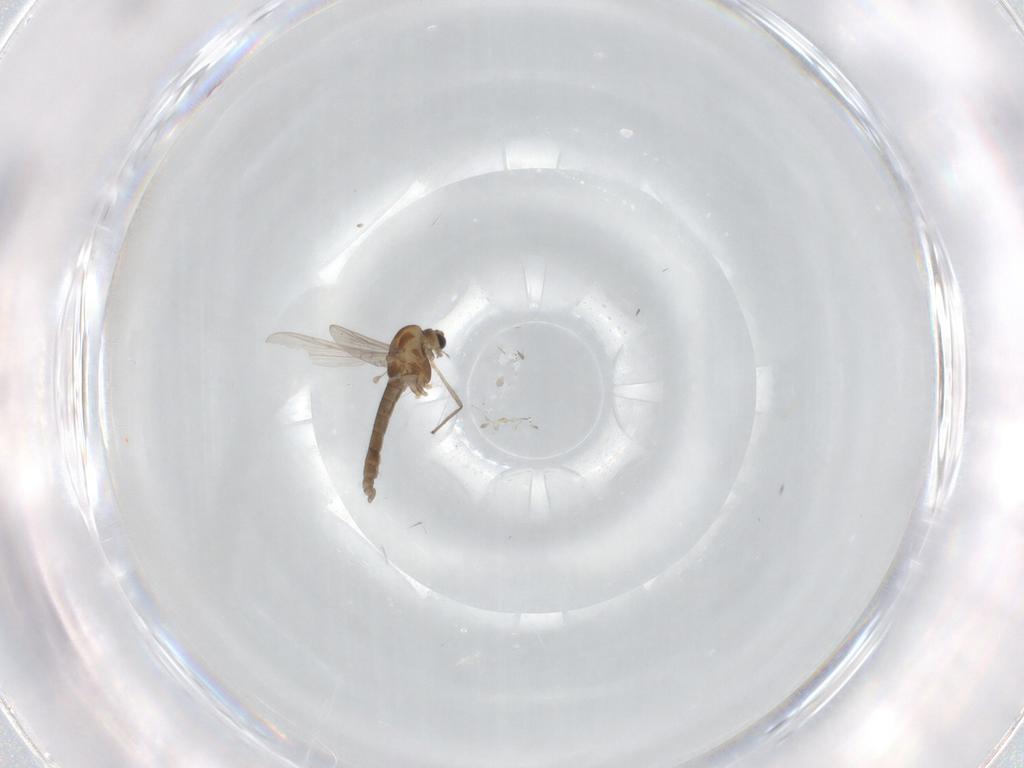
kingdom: Animalia
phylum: Arthropoda
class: Insecta
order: Diptera
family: Chironomidae
